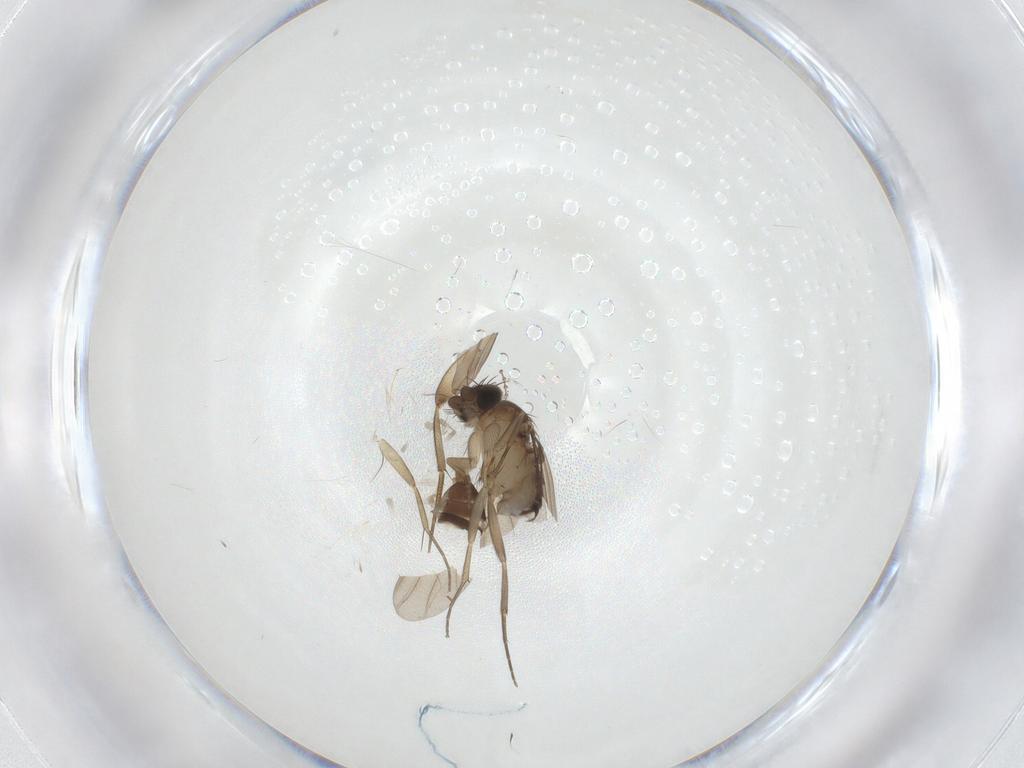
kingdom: Animalia
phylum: Arthropoda
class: Insecta
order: Diptera
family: Phoridae
